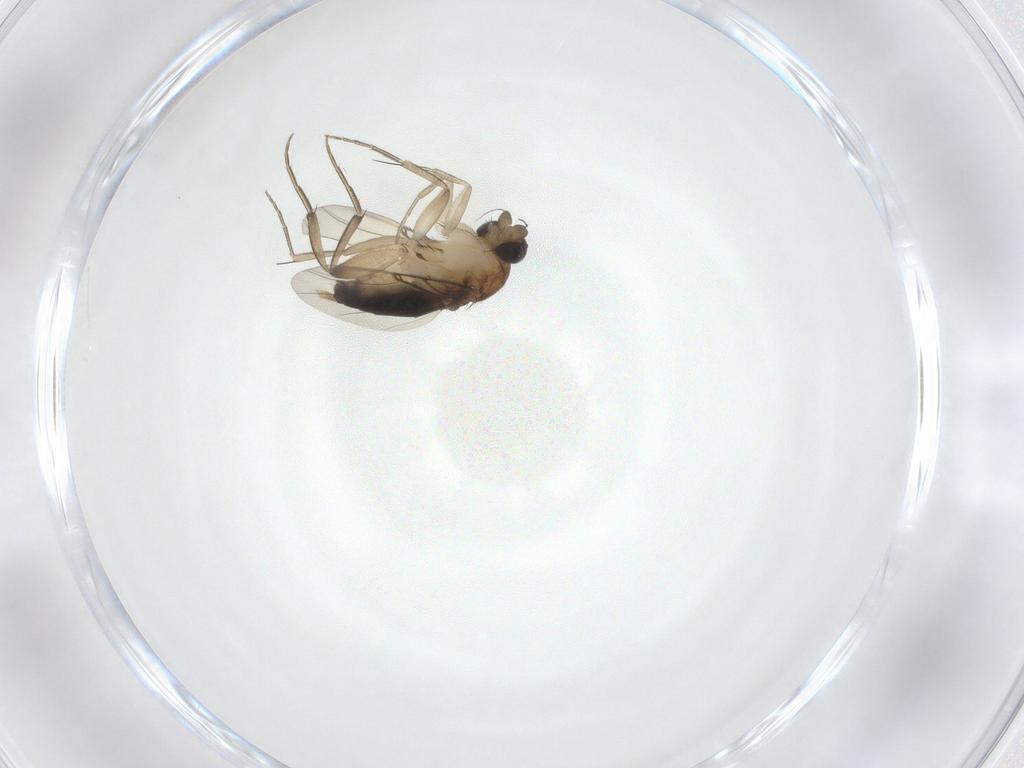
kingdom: Animalia
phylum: Arthropoda
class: Insecta
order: Diptera
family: Phoridae
